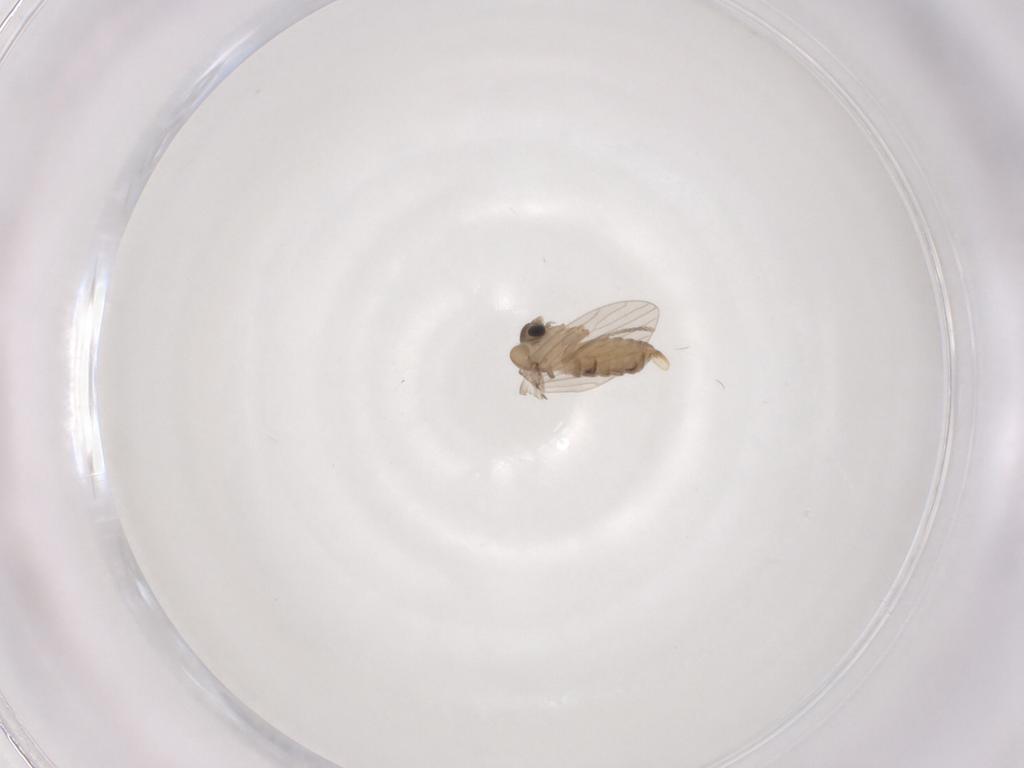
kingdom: Animalia
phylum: Arthropoda
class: Insecta
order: Diptera
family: Psychodidae
